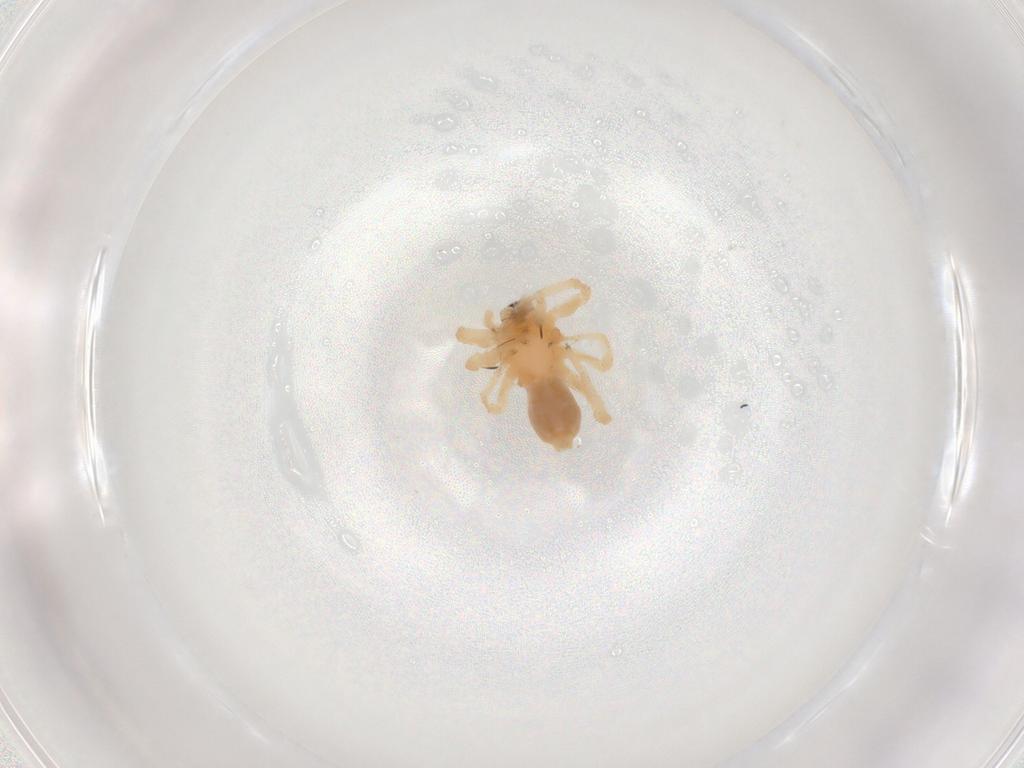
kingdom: Animalia
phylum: Arthropoda
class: Arachnida
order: Araneae
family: Anyphaenidae
